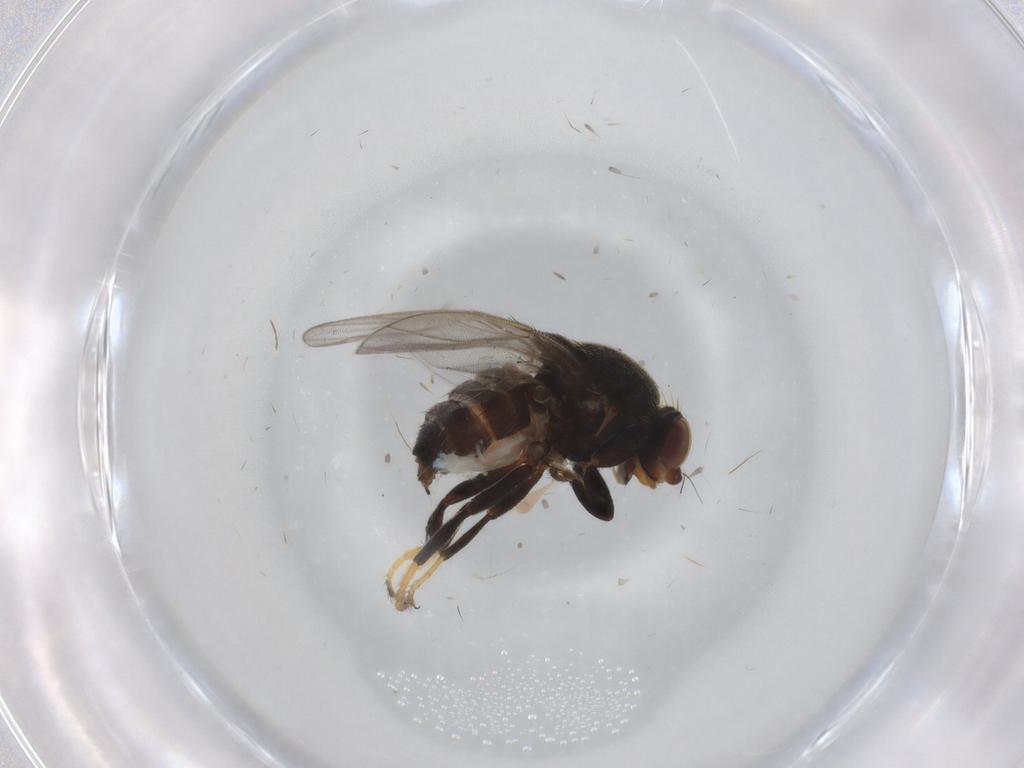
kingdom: Animalia
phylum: Arthropoda
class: Insecta
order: Diptera
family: Chloropidae
